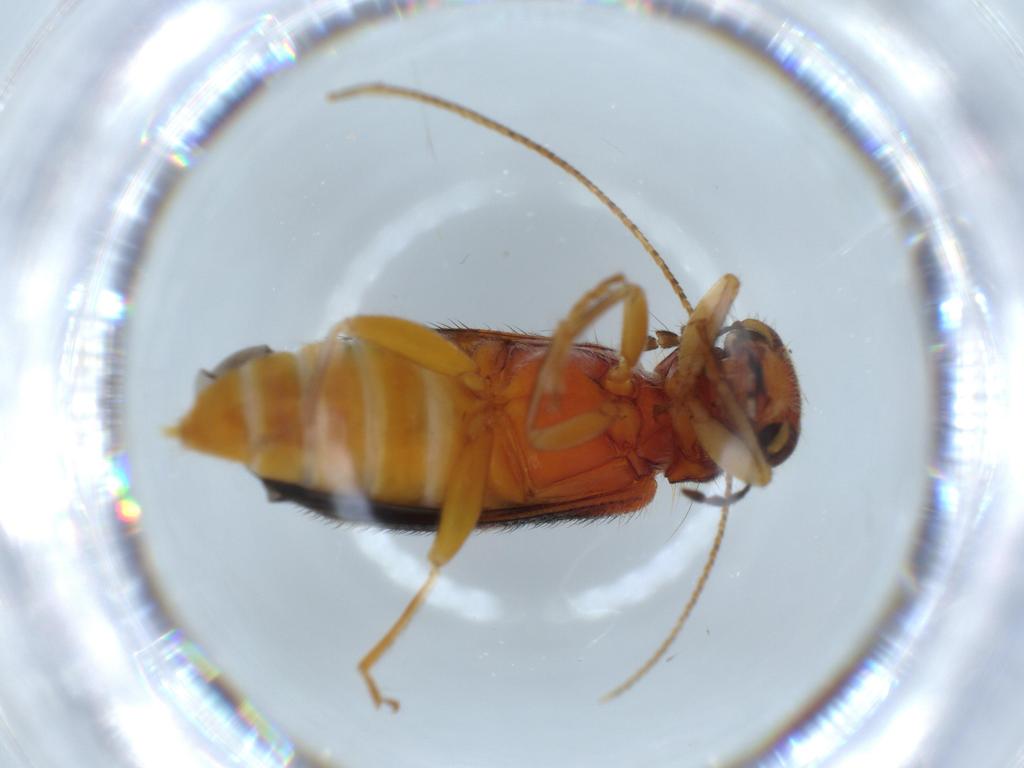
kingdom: Animalia
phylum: Arthropoda
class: Insecta
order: Coleoptera
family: Cleridae
